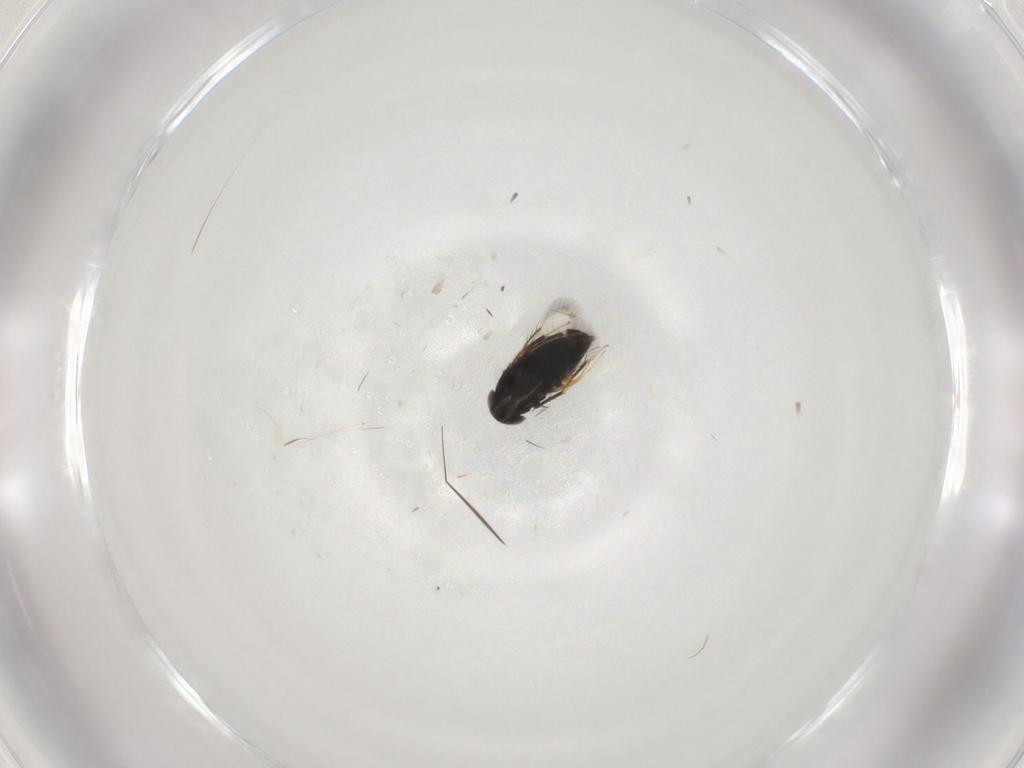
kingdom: Animalia
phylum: Arthropoda
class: Insecta
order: Hymenoptera
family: Signiphoridae
